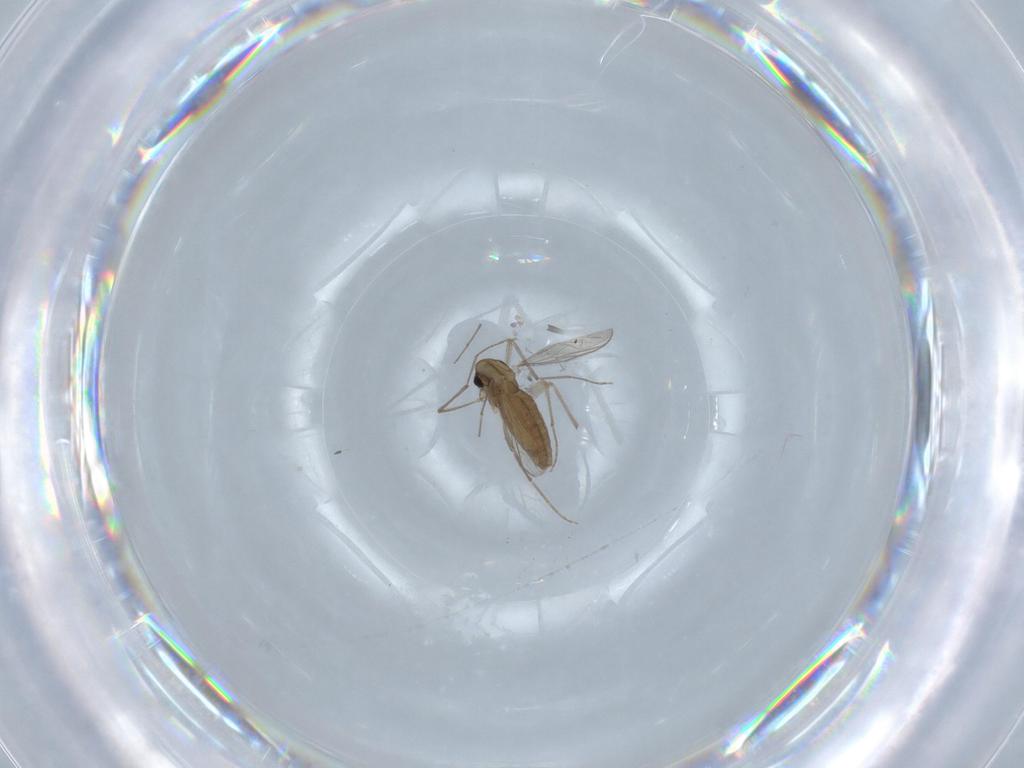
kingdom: Animalia
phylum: Arthropoda
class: Insecta
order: Diptera
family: Chironomidae
